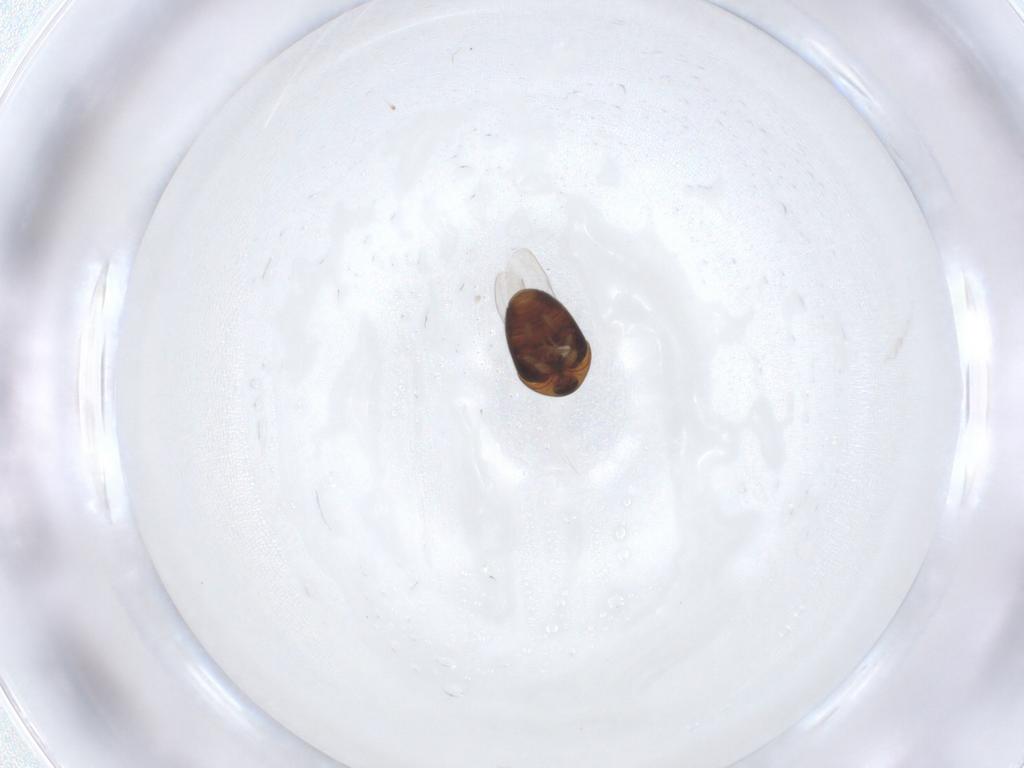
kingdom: Animalia
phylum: Arthropoda
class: Insecta
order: Coleoptera
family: Corylophidae
